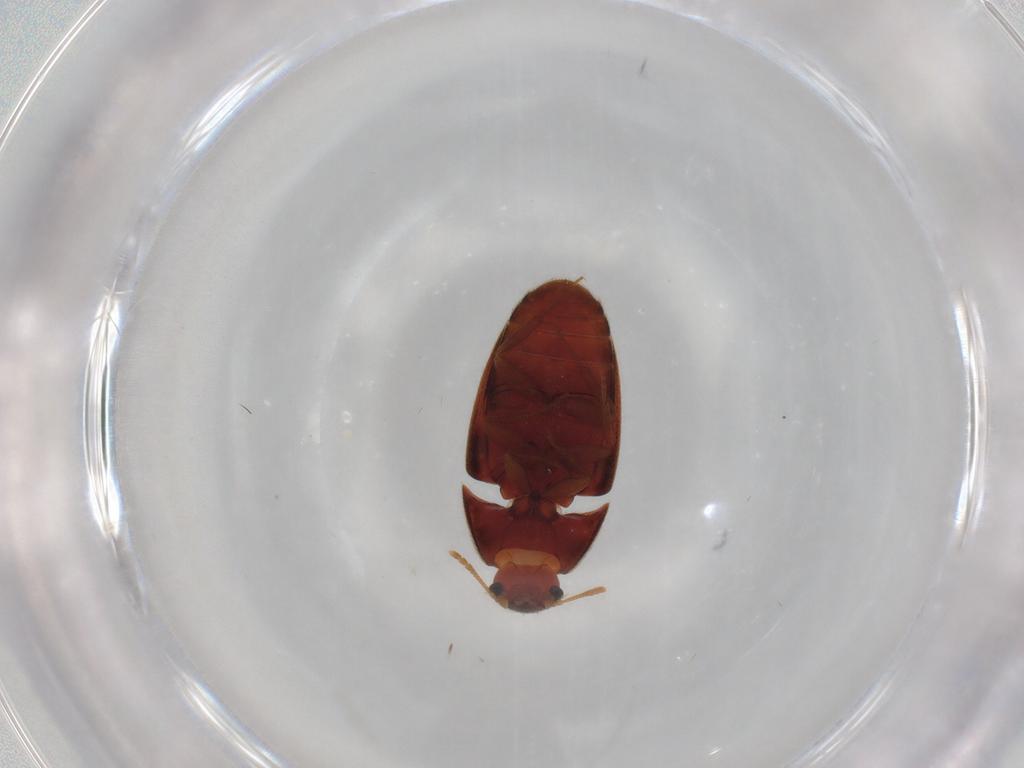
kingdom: Animalia
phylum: Arthropoda
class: Insecta
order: Coleoptera
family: Mycetophagidae
